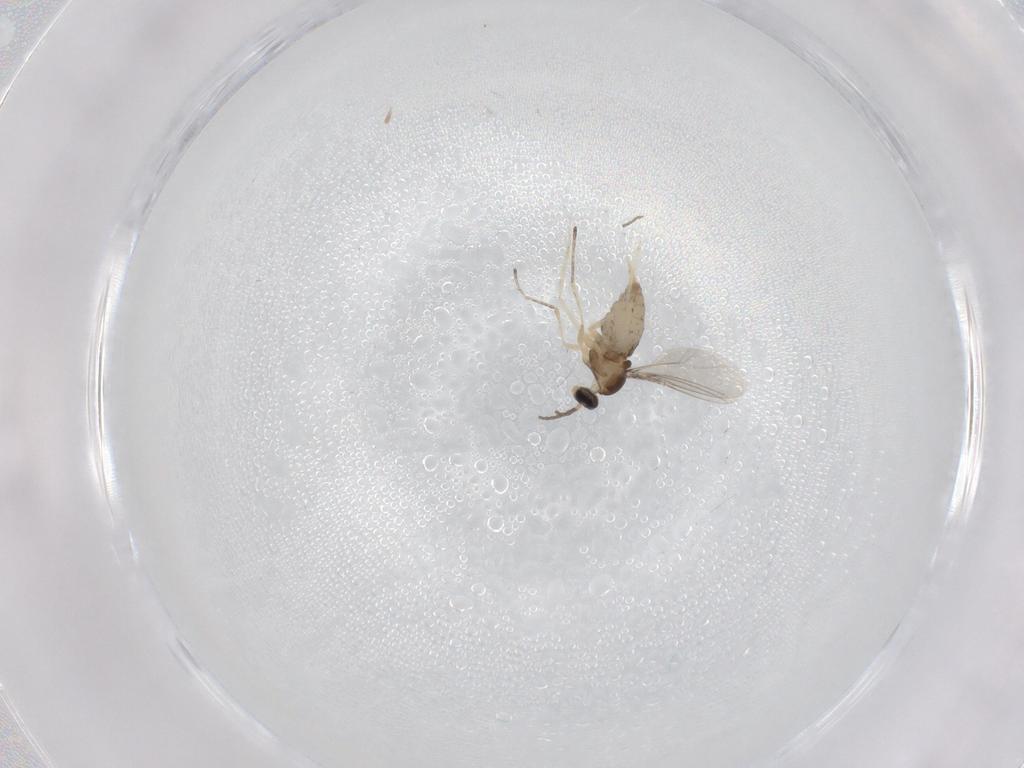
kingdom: Animalia
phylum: Arthropoda
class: Insecta
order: Diptera
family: Cecidomyiidae
